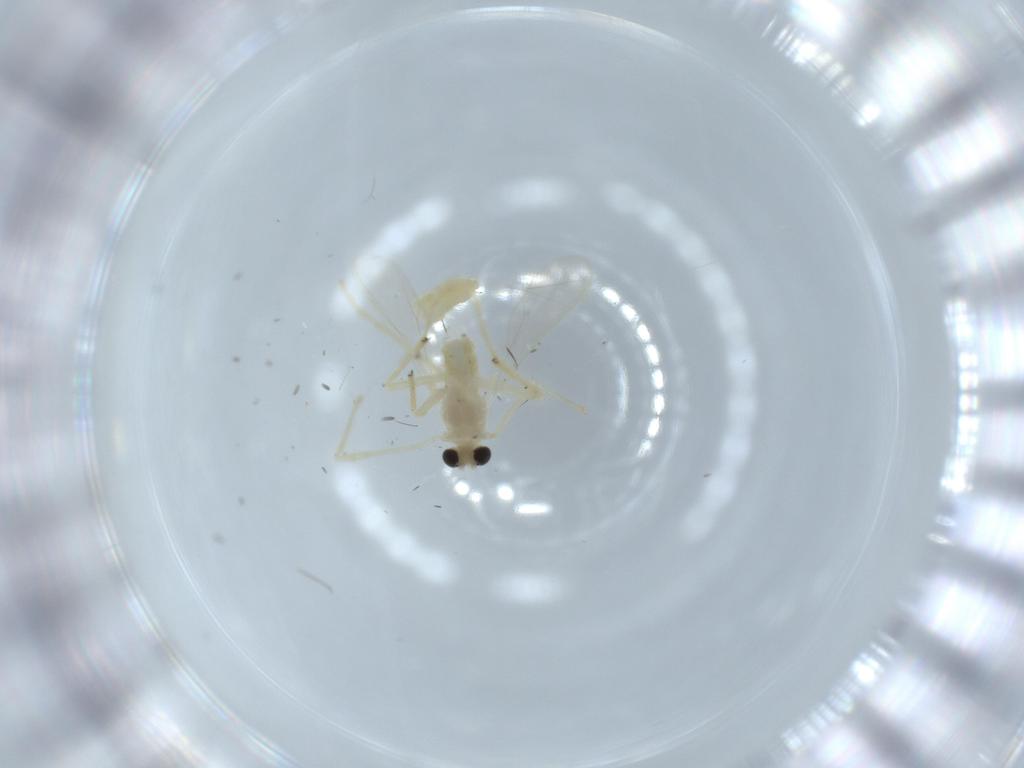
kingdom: Animalia
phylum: Arthropoda
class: Insecta
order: Diptera
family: Chironomidae
